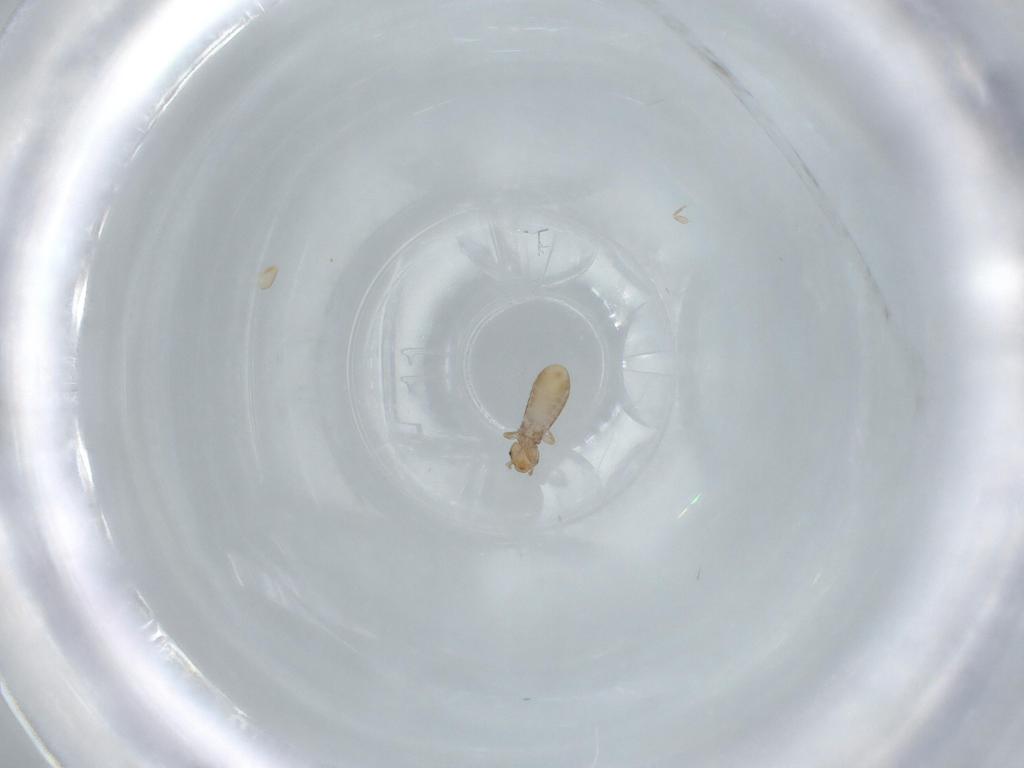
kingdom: Animalia
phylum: Arthropoda
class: Insecta
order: Psocodea
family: Liposcelididae
